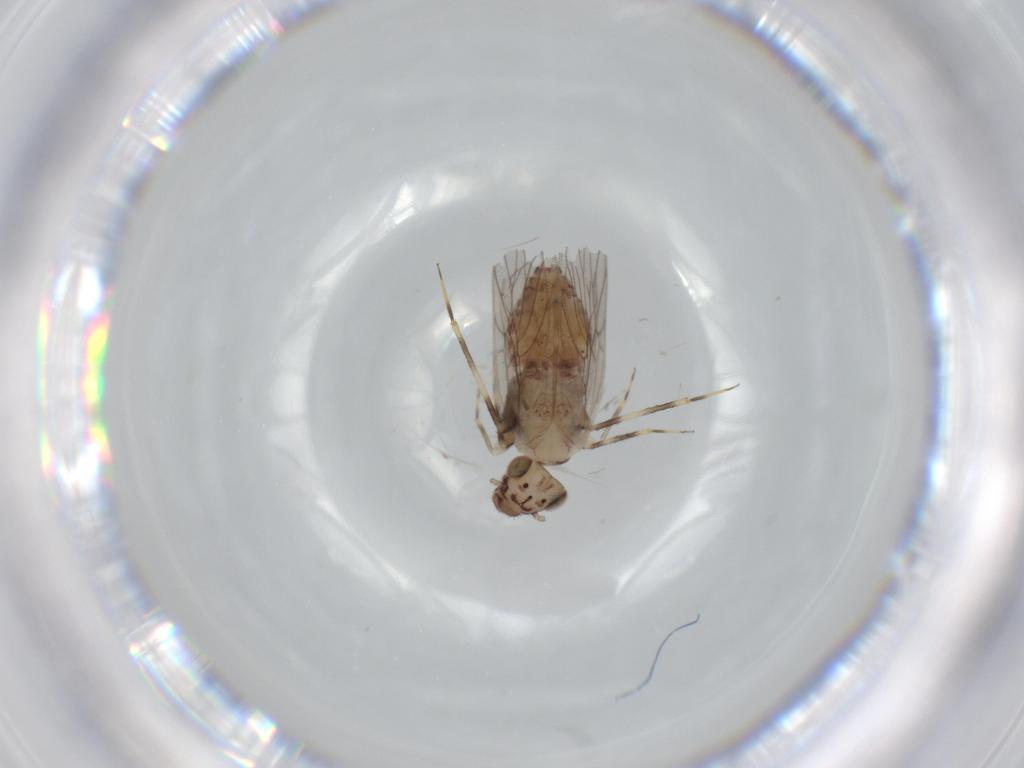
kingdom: Animalia
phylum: Arthropoda
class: Insecta
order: Psocodea
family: Lepidopsocidae
